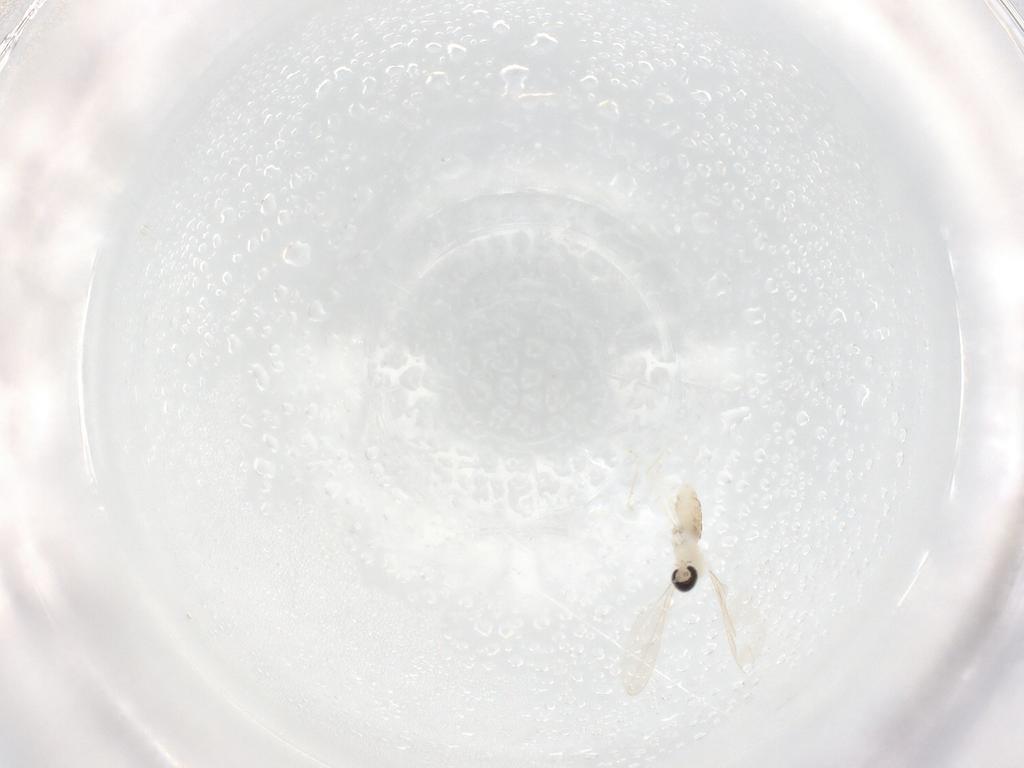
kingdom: Animalia
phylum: Arthropoda
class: Insecta
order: Diptera
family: Cecidomyiidae
